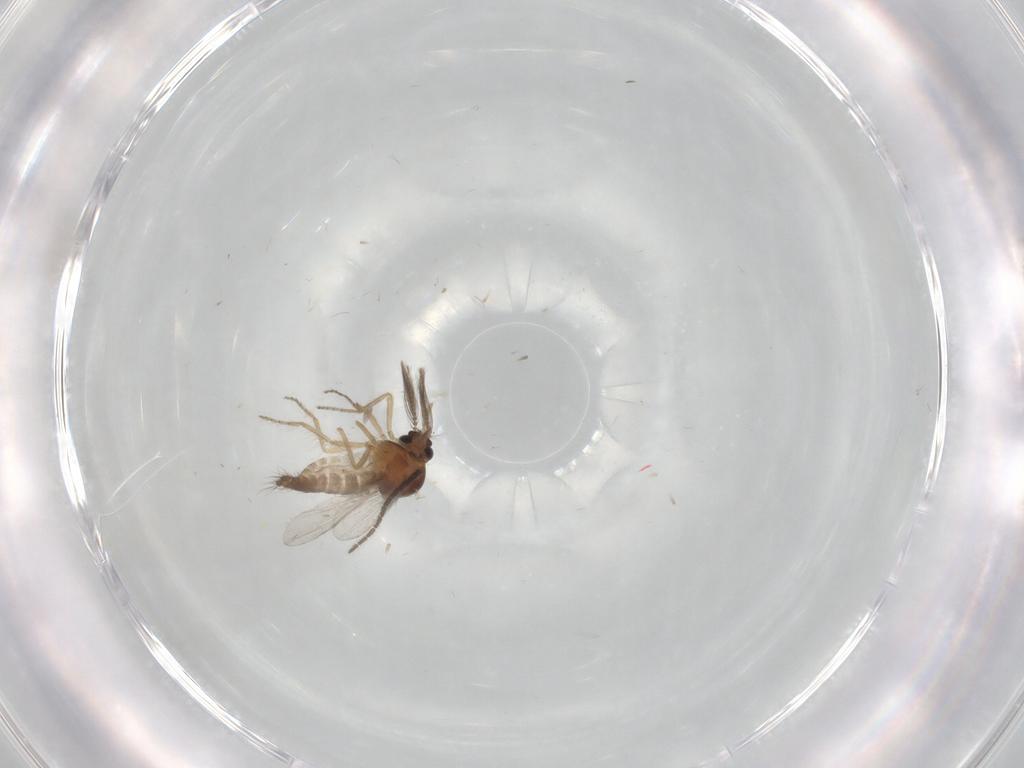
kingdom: Animalia
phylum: Arthropoda
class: Insecta
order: Diptera
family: Ceratopogonidae
